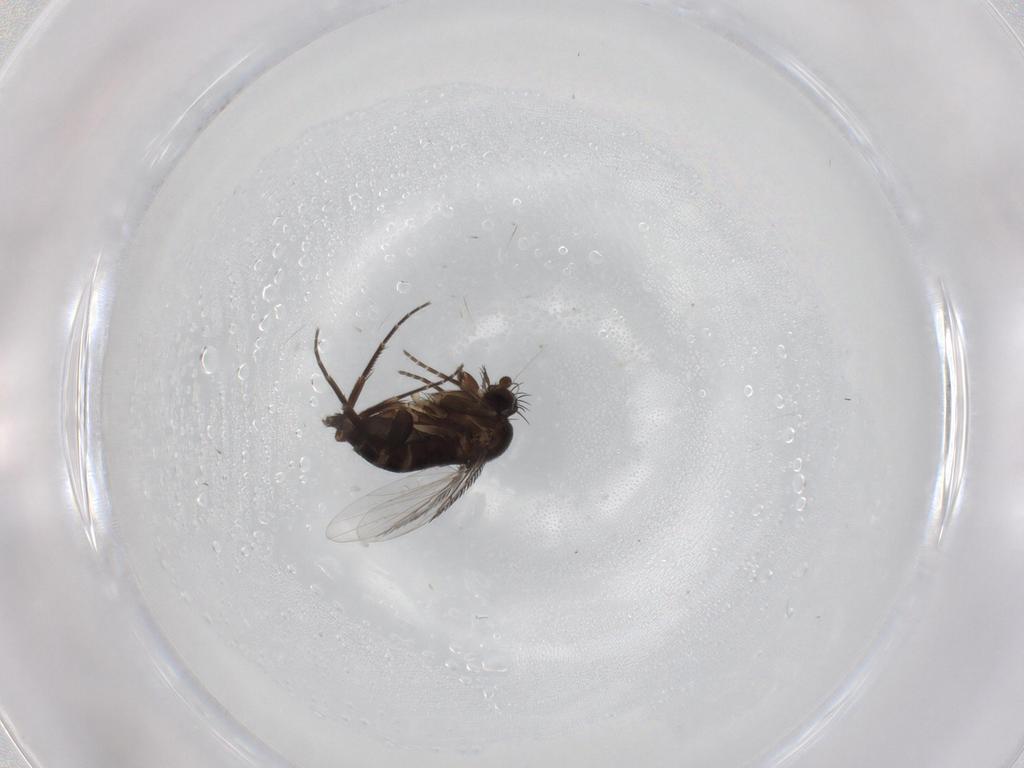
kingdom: Animalia
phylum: Arthropoda
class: Insecta
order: Diptera
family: Phoridae
